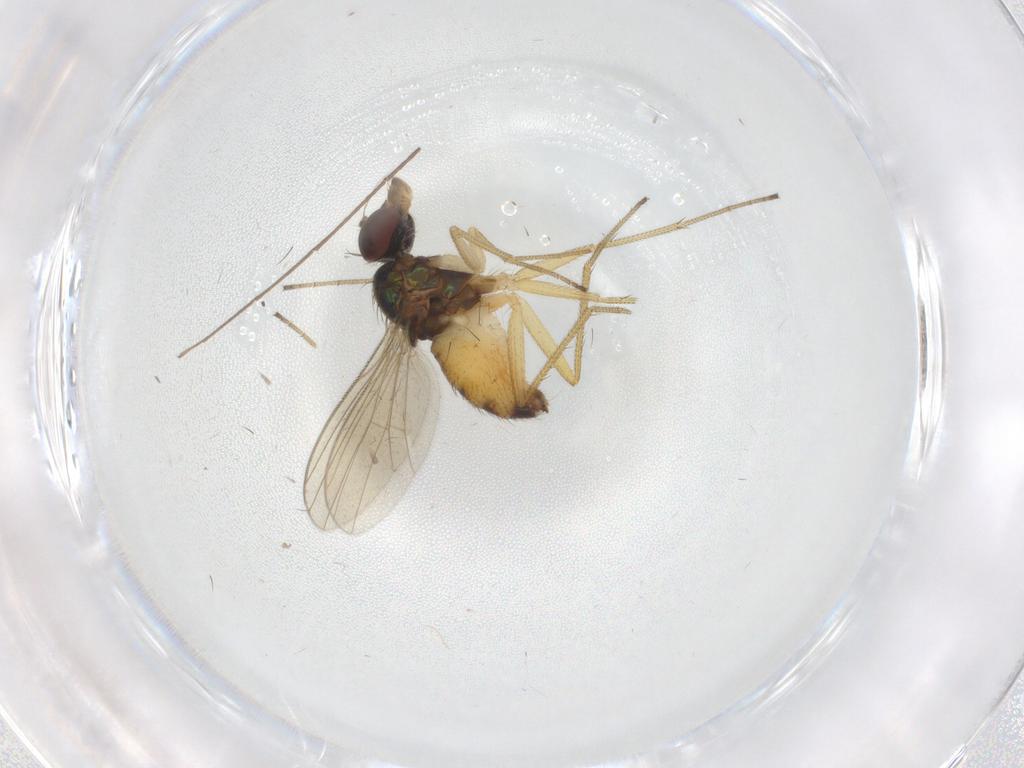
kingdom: Animalia
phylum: Arthropoda
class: Insecta
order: Diptera
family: Dolichopodidae
